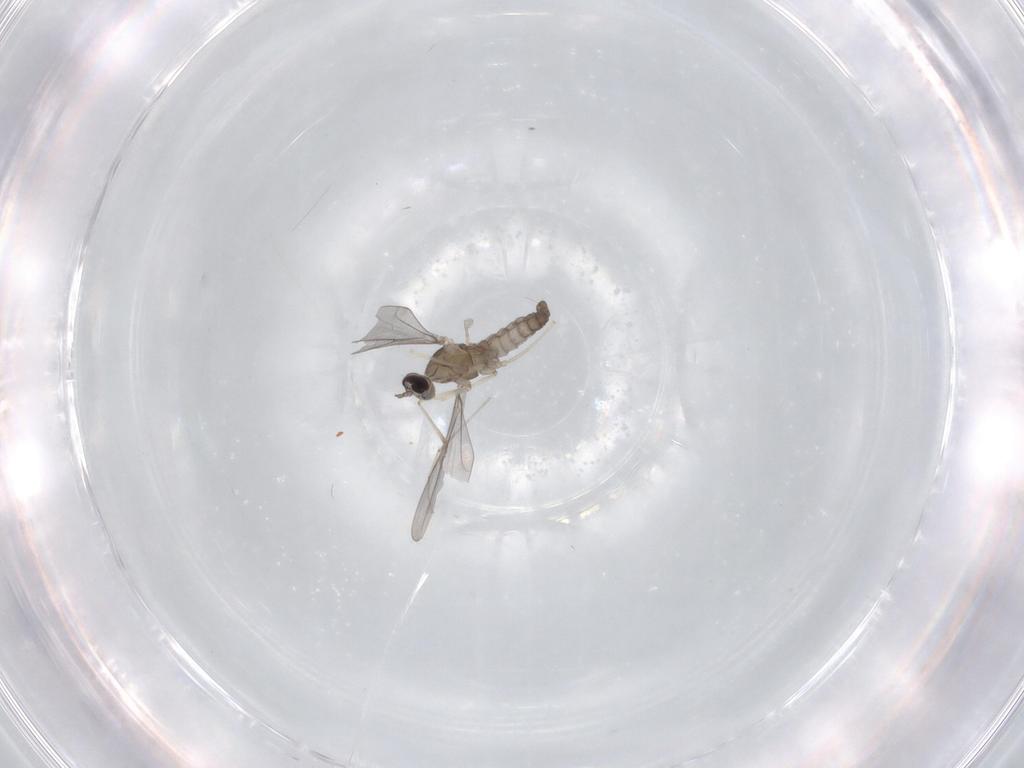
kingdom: Animalia
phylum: Arthropoda
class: Insecta
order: Diptera
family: Cecidomyiidae
